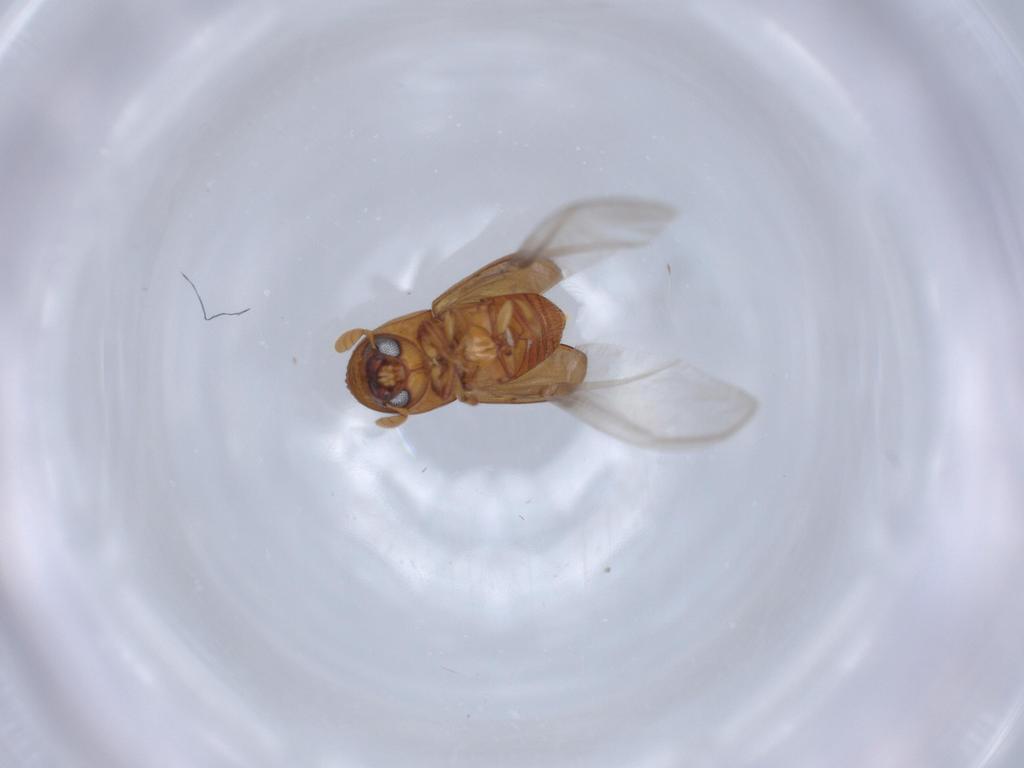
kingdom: Animalia
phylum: Arthropoda
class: Insecta
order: Coleoptera
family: Curculionidae
